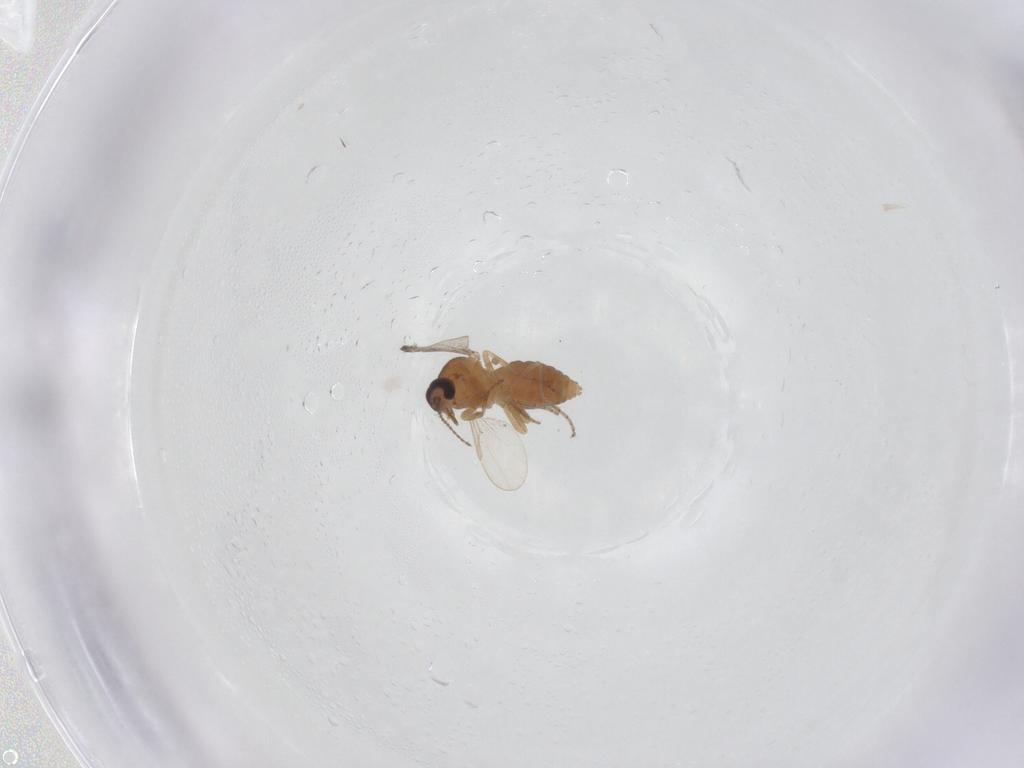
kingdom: Animalia
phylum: Arthropoda
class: Insecta
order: Diptera
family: Ceratopogonidae
